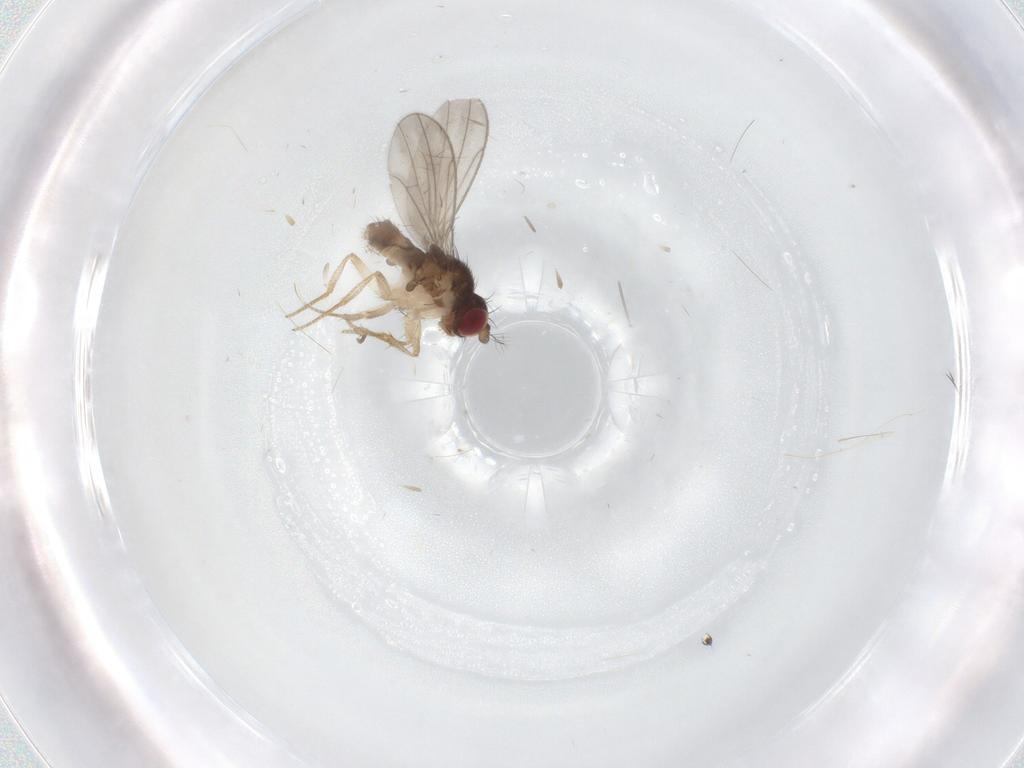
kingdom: Animalia
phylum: Arthropoda
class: Insecta
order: Diptera
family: Drosophilidae
